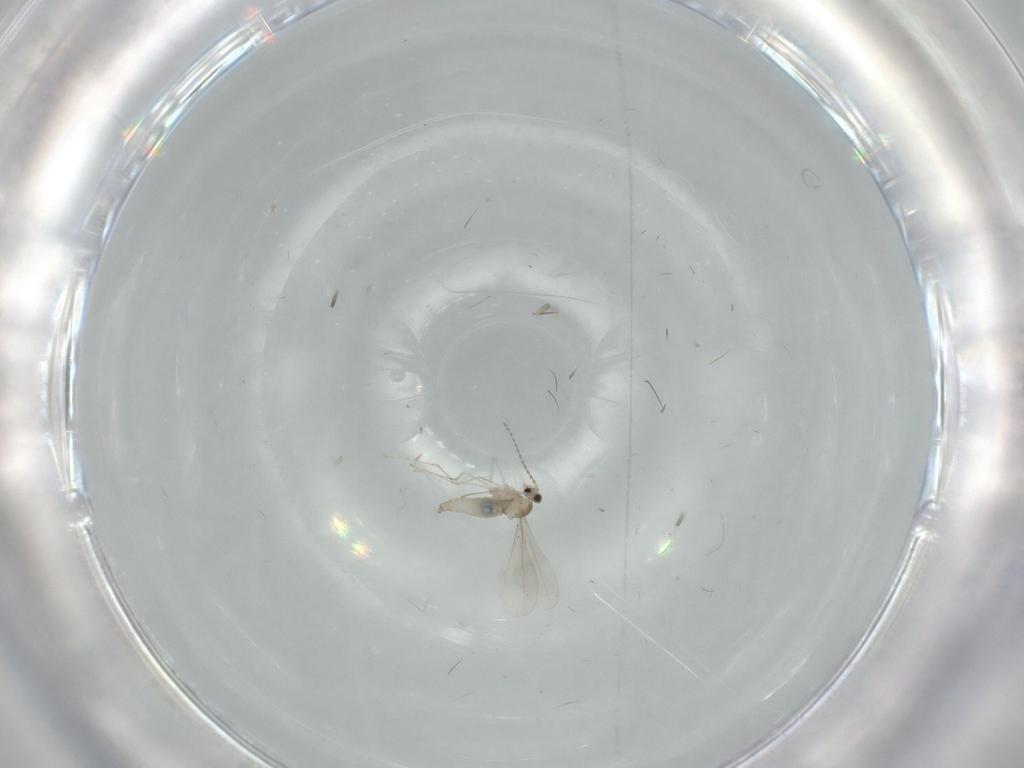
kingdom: Animalia
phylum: Arthropoda
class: Insecta
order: Diptera
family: Cecidomyiidae
